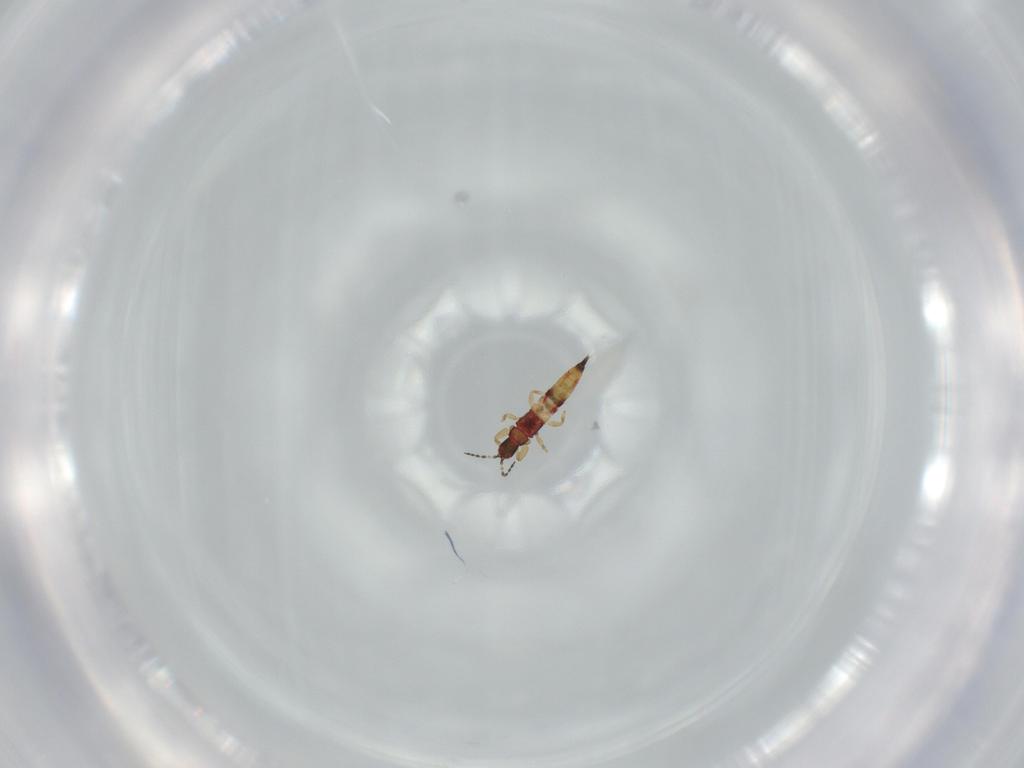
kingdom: Animalia
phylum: Arthropoda
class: Insecta
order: Thysanoptera
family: Phlaeothripidae
